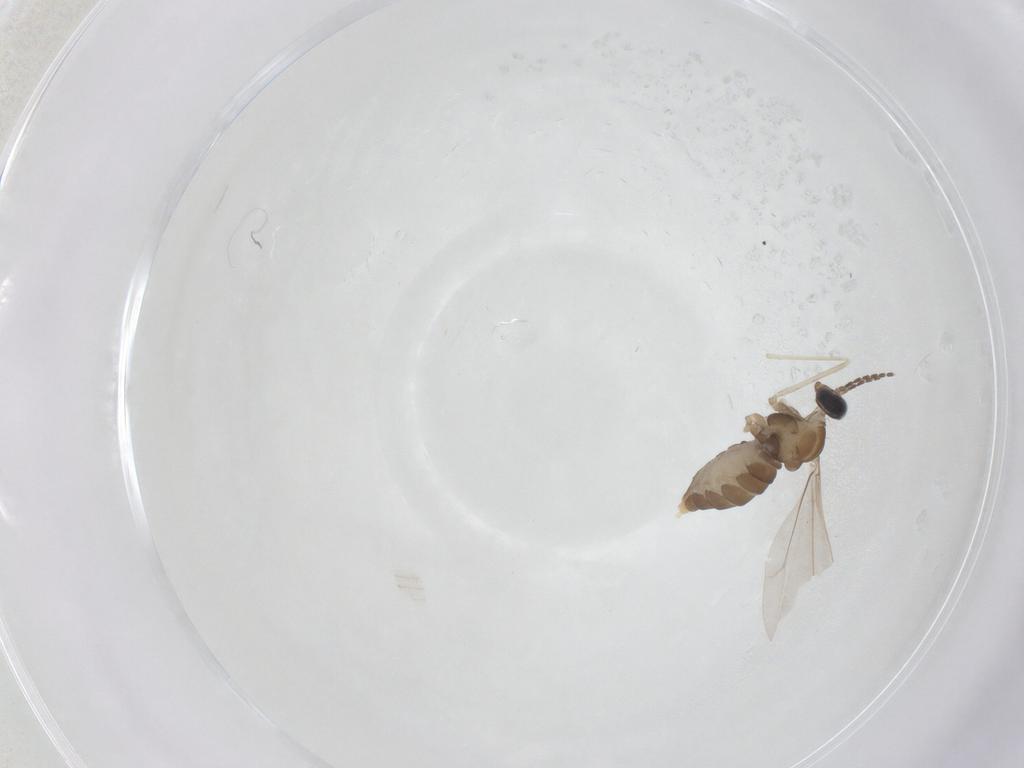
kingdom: Animalia
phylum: Arthropoda
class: Insecta
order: Diptera
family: Cecidomyiidae
